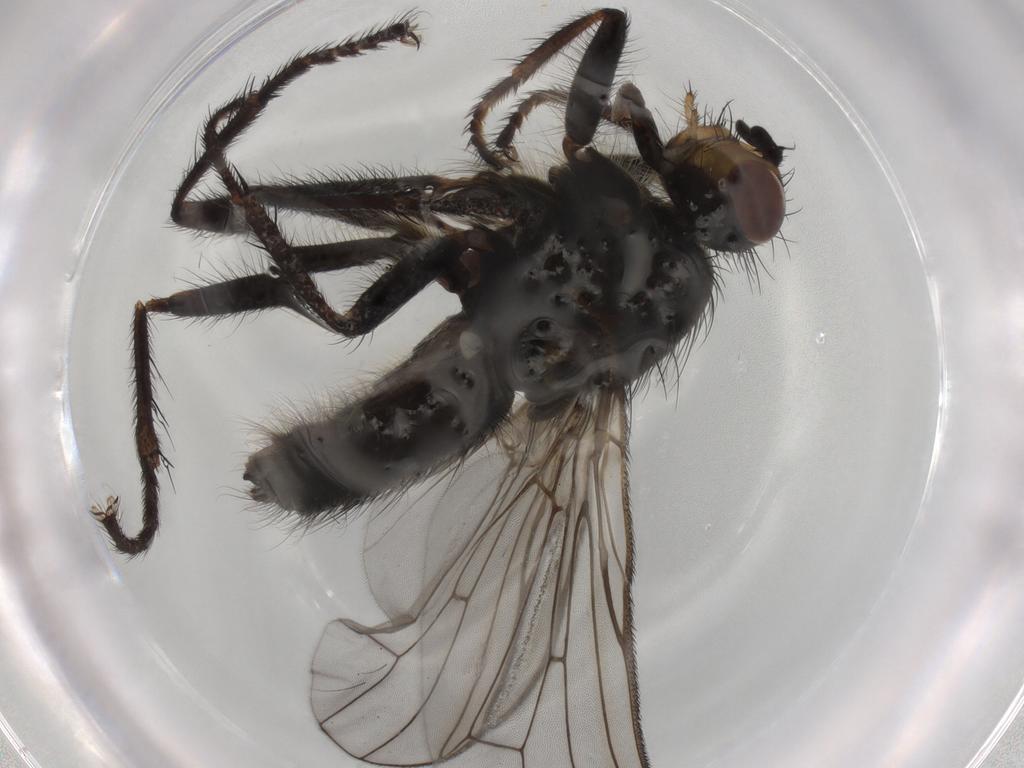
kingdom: Animalia
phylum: Arthropoda
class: Insecta
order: Diptera
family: Scathophagidae
